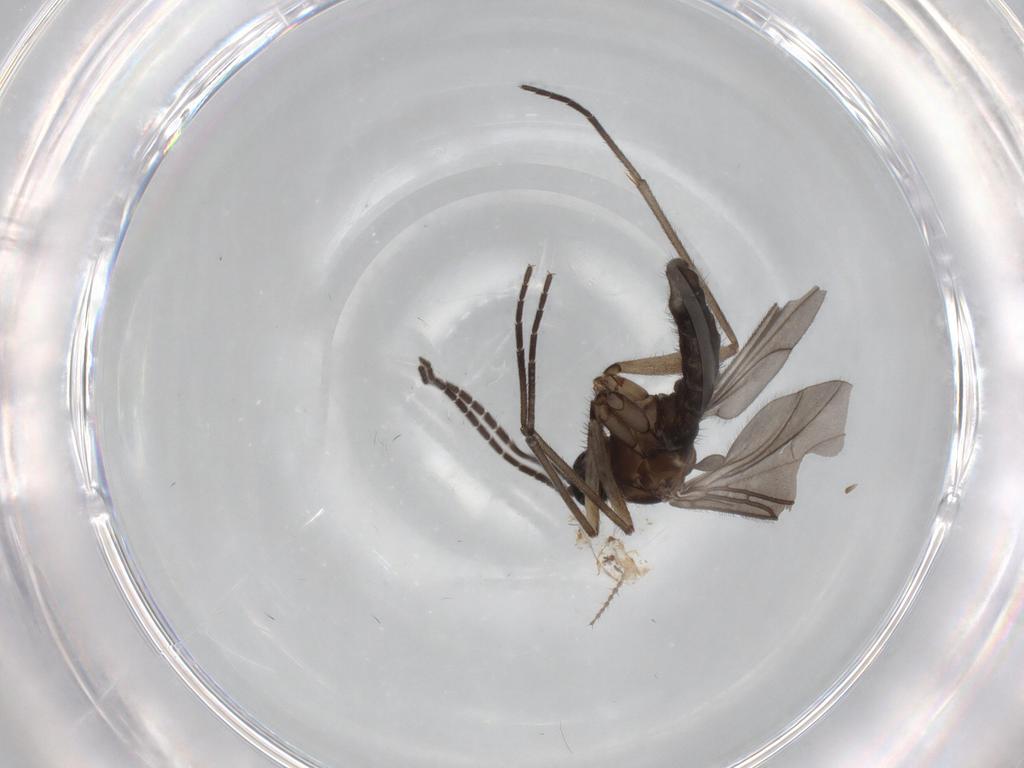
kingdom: Animalia
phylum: Arthropoda
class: Insecta
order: Diptera
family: Sciaridae
